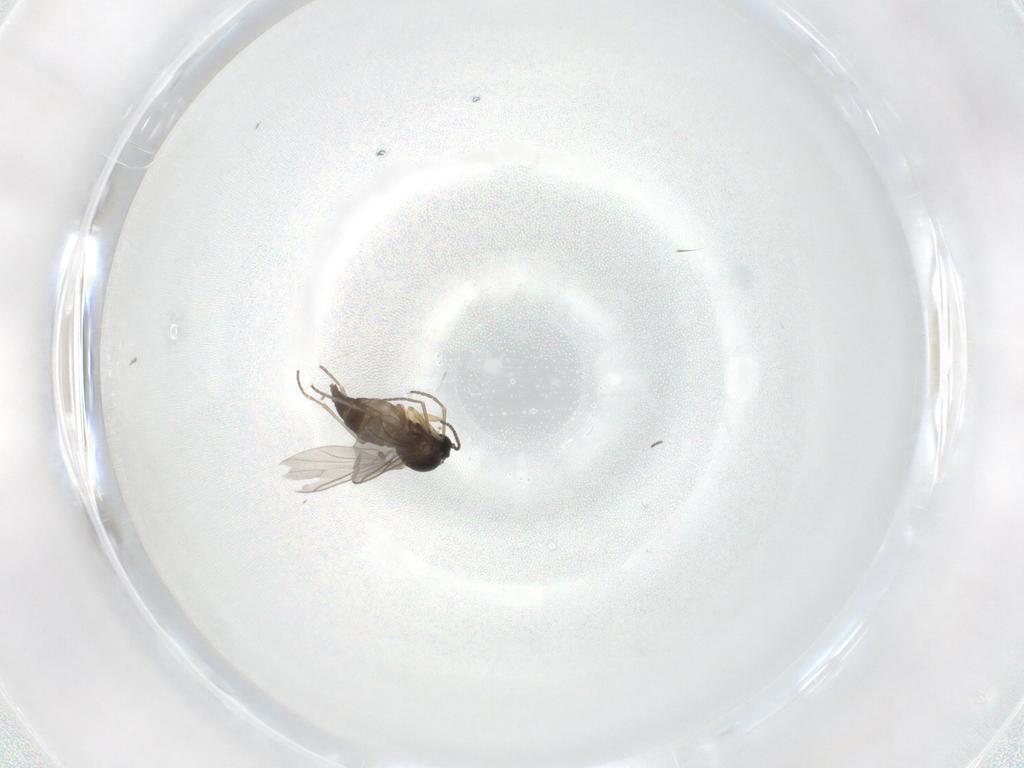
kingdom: Animalia
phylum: Arthropoda
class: Insecta
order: Diptera
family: Sciaridae
